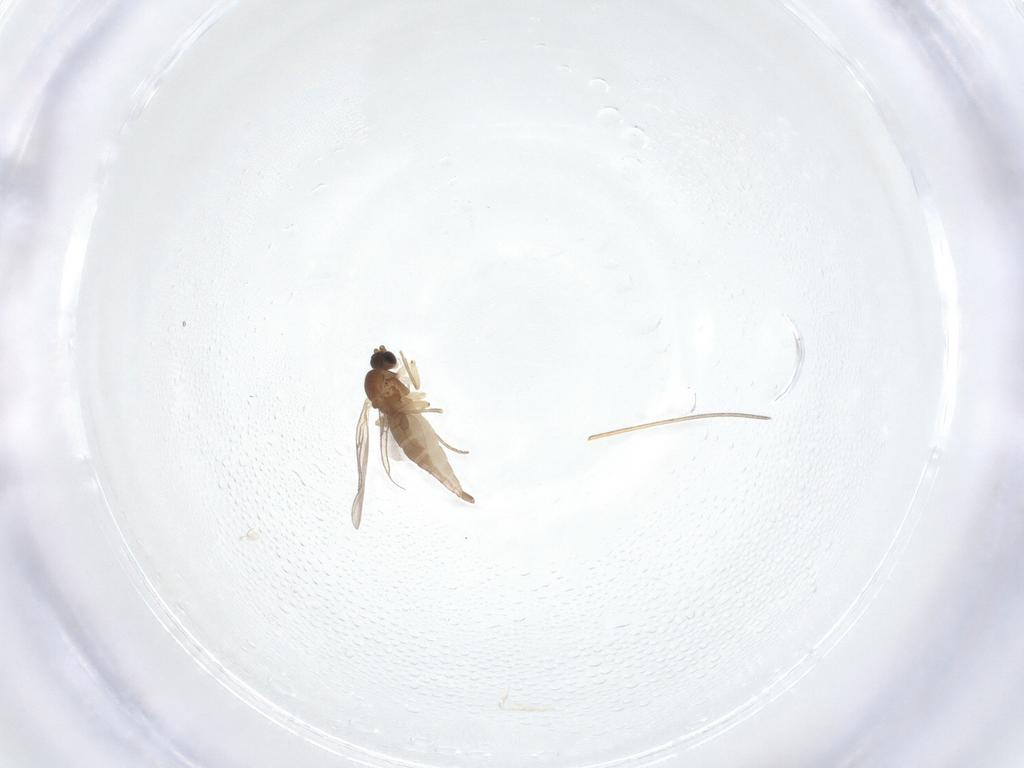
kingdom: Animalia
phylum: Arthropoda
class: Insecta
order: Diptera
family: Sciaridae
